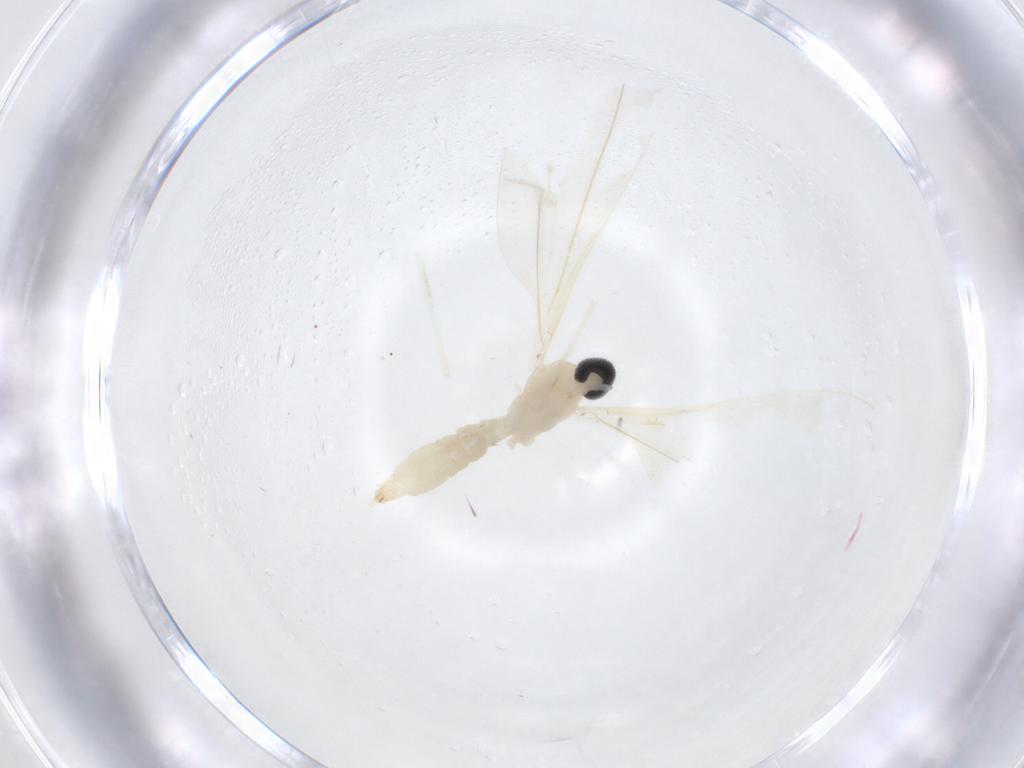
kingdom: Animalia
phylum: Arthropoda
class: Insecta
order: Diptera
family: Cecidomyiidae
